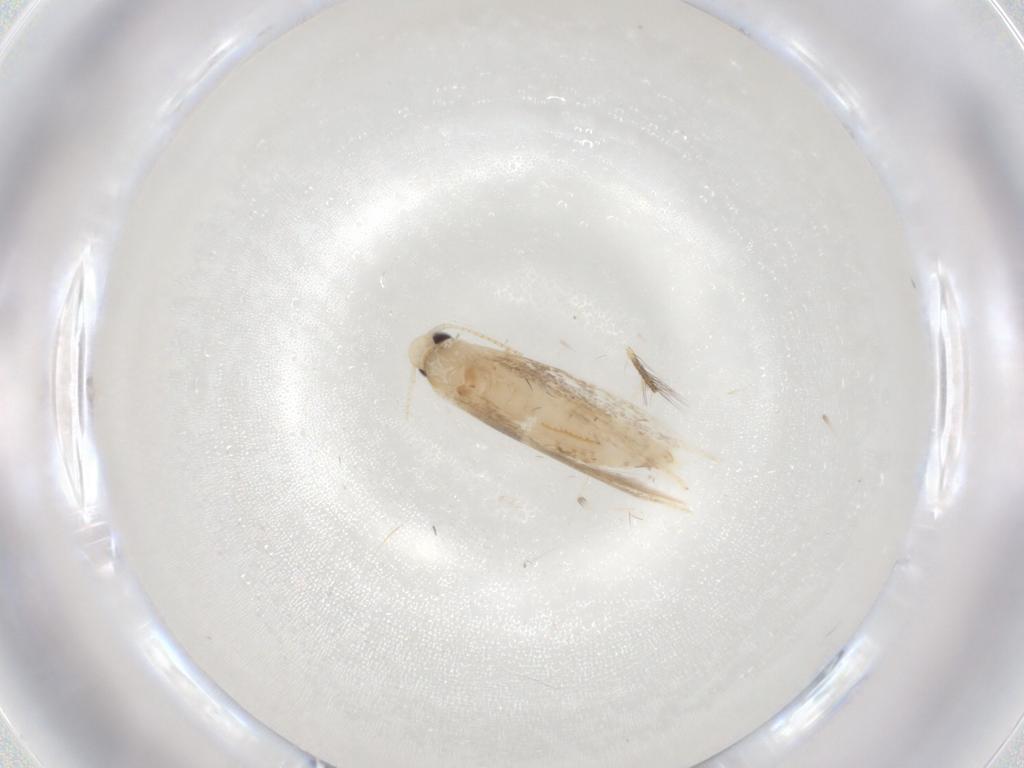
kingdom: Animalia
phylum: Arthropoda
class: Insecta
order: Lepidoptera
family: Gracillariidae
